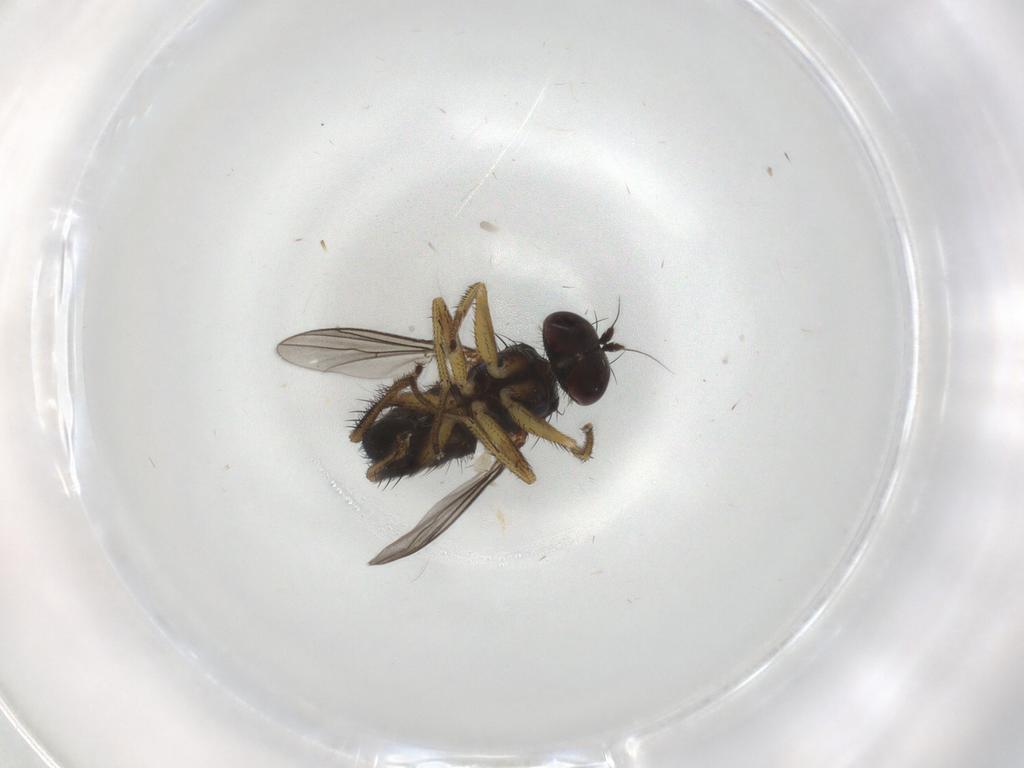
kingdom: Animalia
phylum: Arthropoda
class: Insecta
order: Diptera
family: Dolichopodidae
